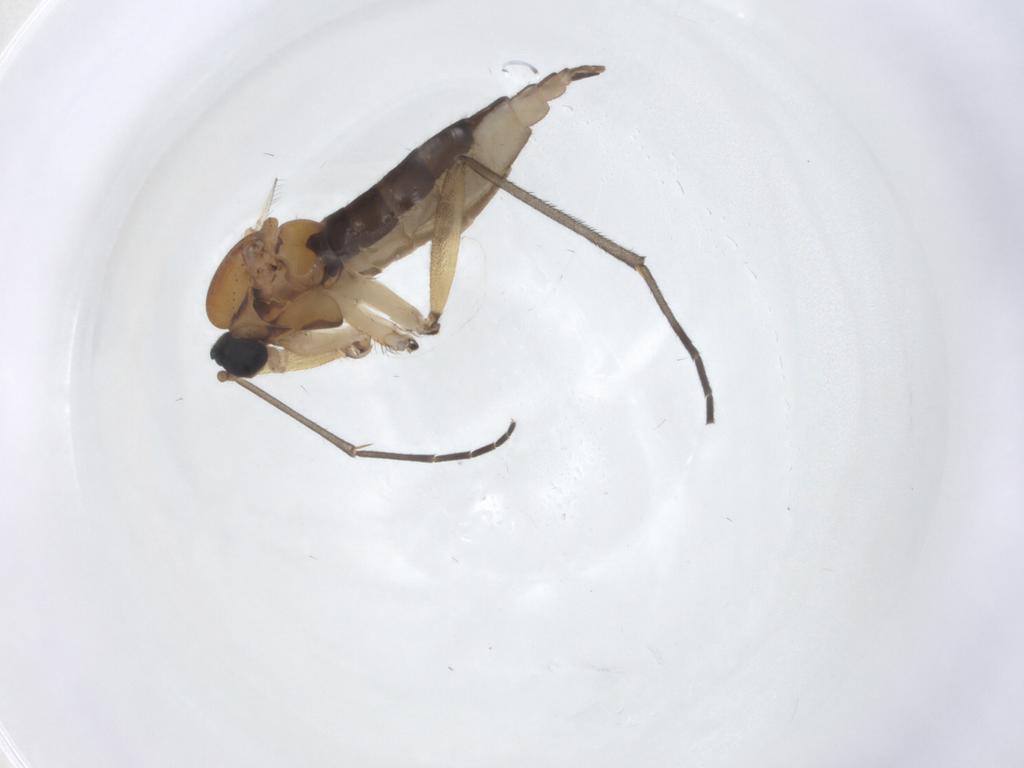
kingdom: Animalia
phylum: Arthropoda
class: Insecta
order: Diptera
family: Sciaridae
